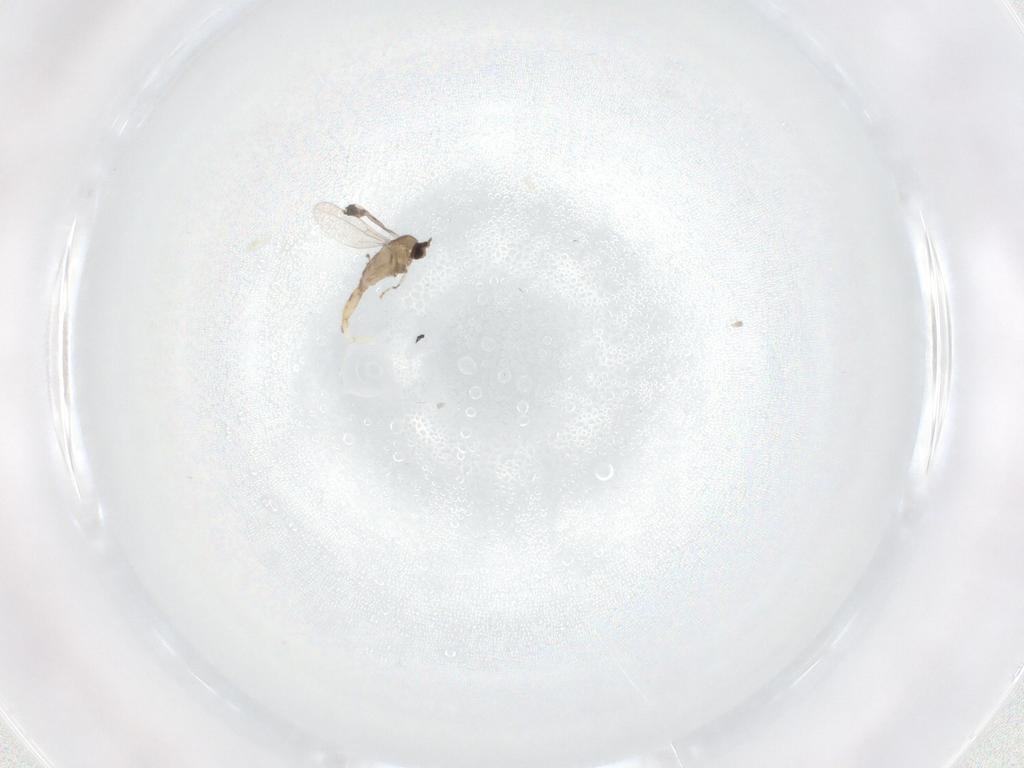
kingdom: Animalia
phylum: Arthropoda
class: Insecta
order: Diptera
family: Cecidomyiidae
